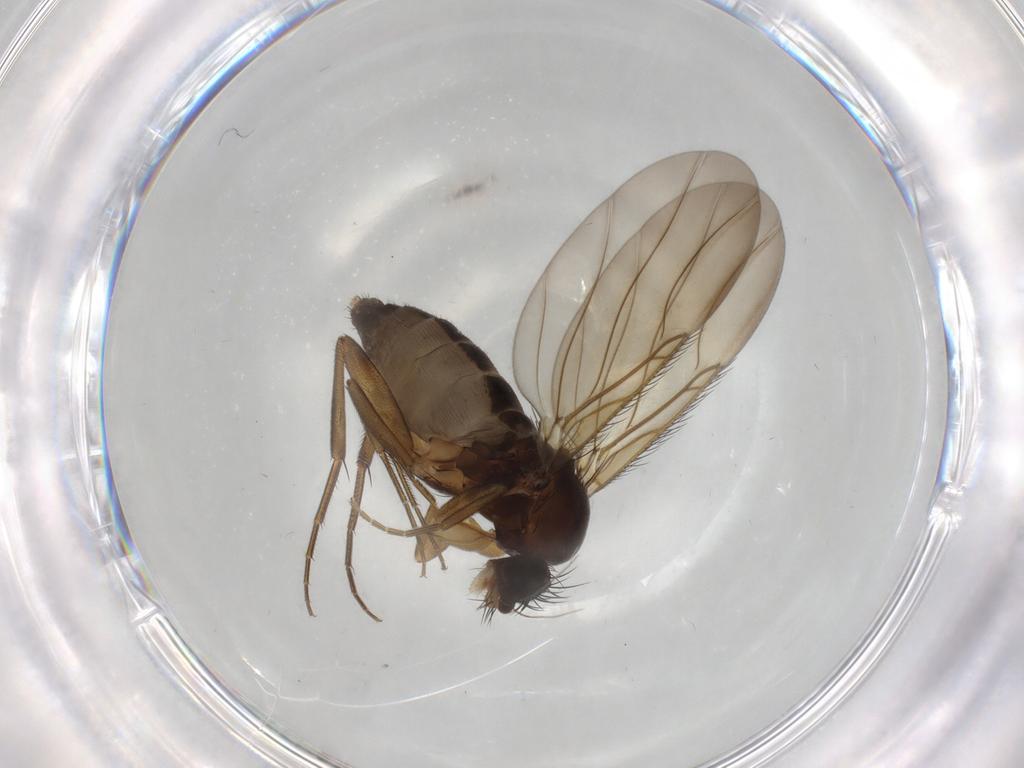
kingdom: Animalia
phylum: Arthropoda
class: Insecta
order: Diptera
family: Phoridae
